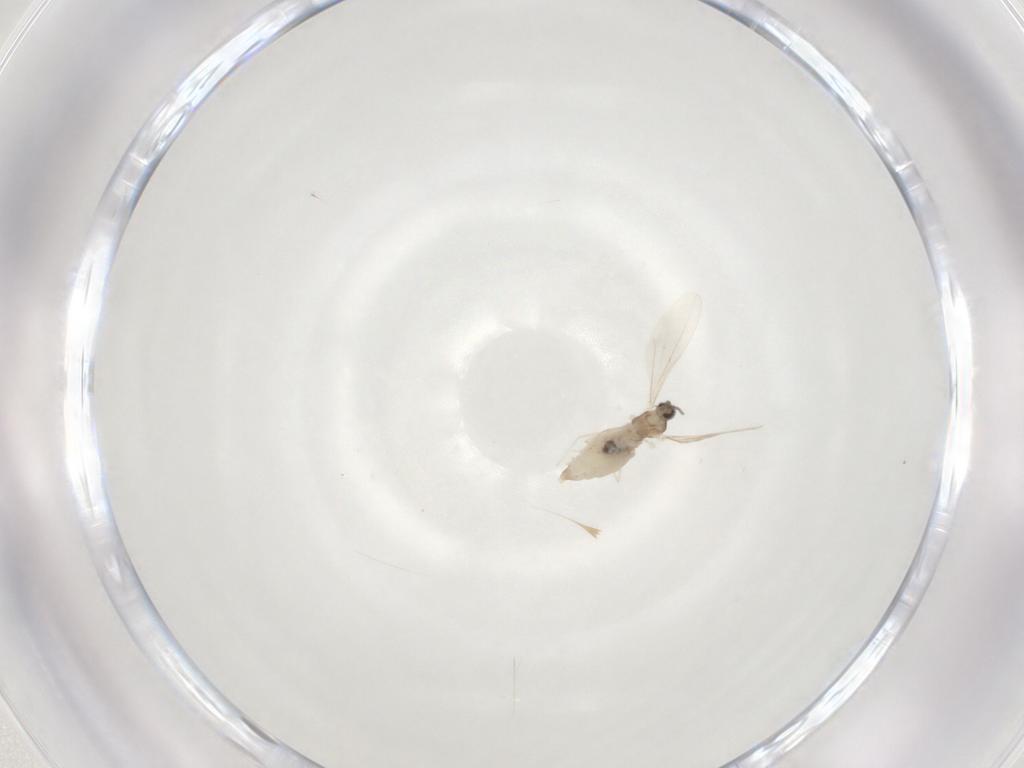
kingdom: Animalia
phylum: Arthropoda
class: Insecta
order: Diptera
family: Cecidomyiidae
